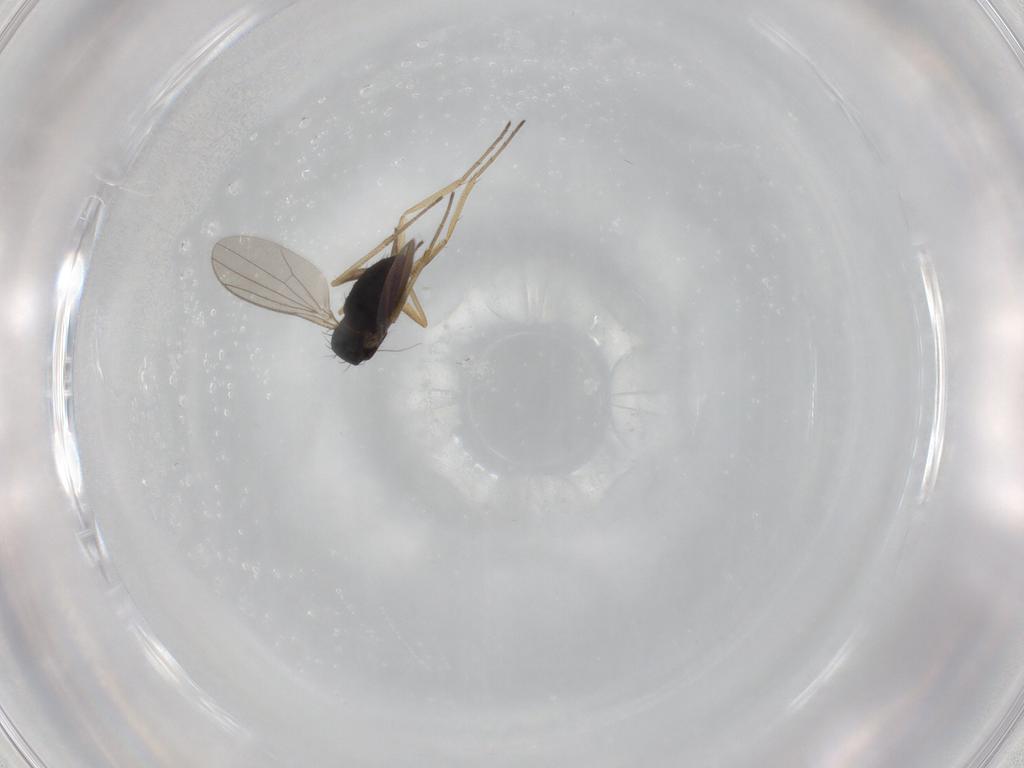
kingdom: Animalia
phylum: Arthropoda
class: Insecta
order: Diptera
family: Dolichopodidae
